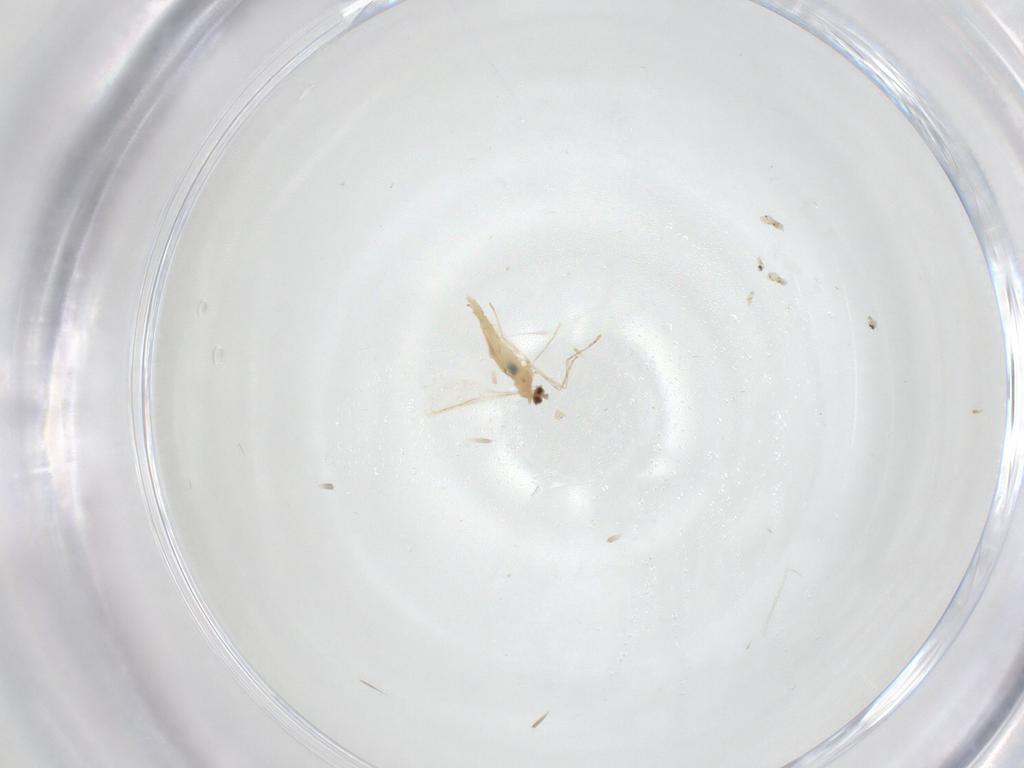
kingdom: Animalia
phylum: Arthropoda
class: Insecta
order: Diptera
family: Cecidomyiidae
